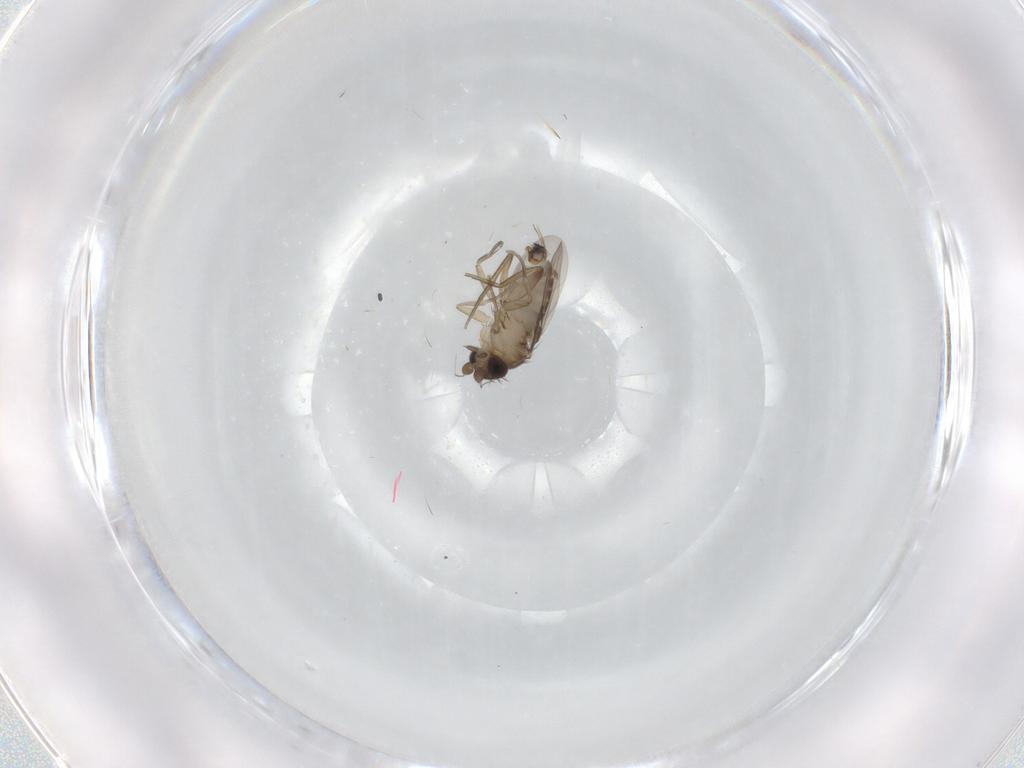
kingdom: Animalia
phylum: Arthropoda
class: Insecta
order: Diptera
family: Phoridae
